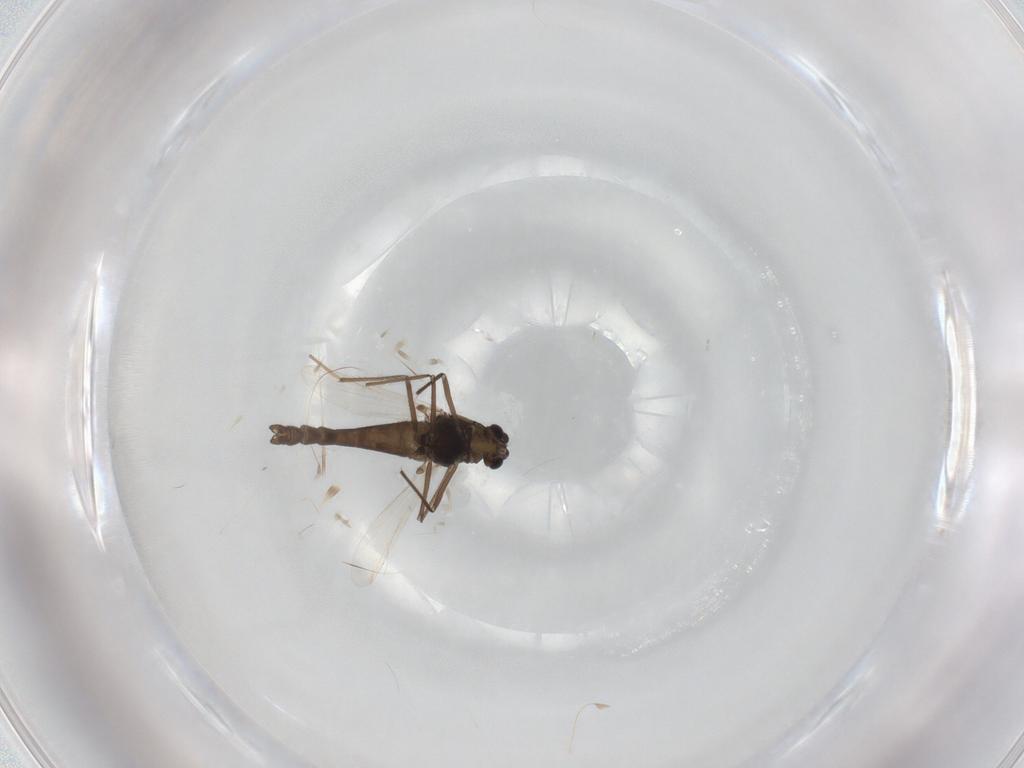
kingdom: Animalia
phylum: Arthropoda
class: Insecta
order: Diptera
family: Chironomidae
